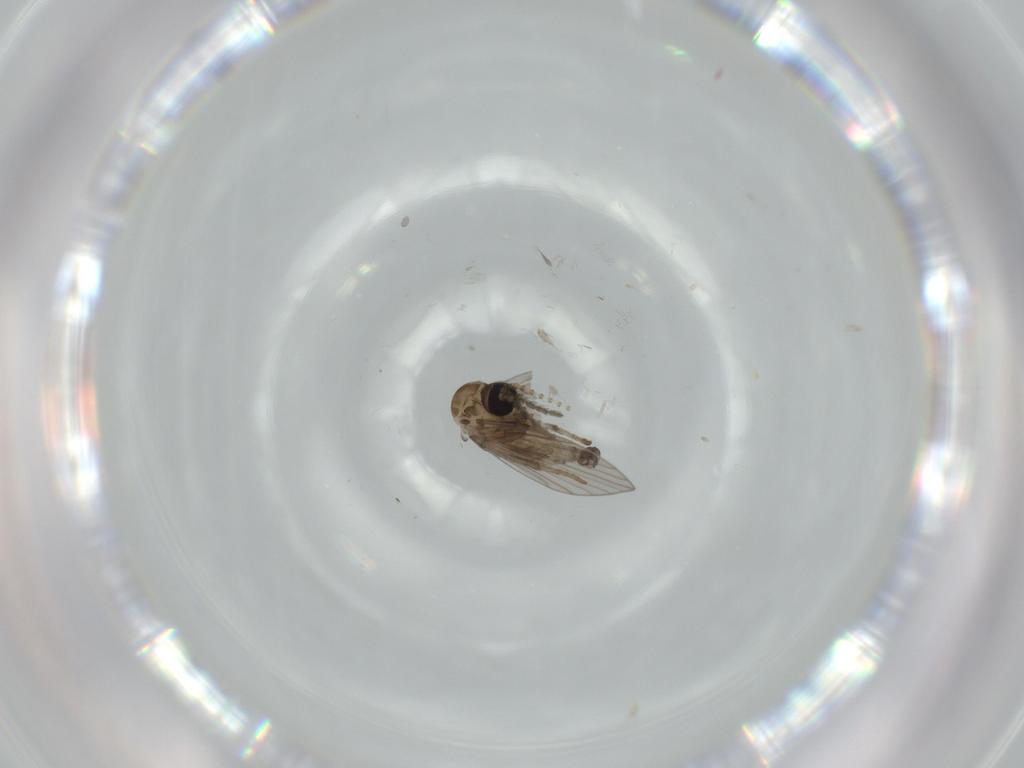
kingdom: Animalia
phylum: Arthropoda
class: Insecta
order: Diptera
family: Psychodidae
